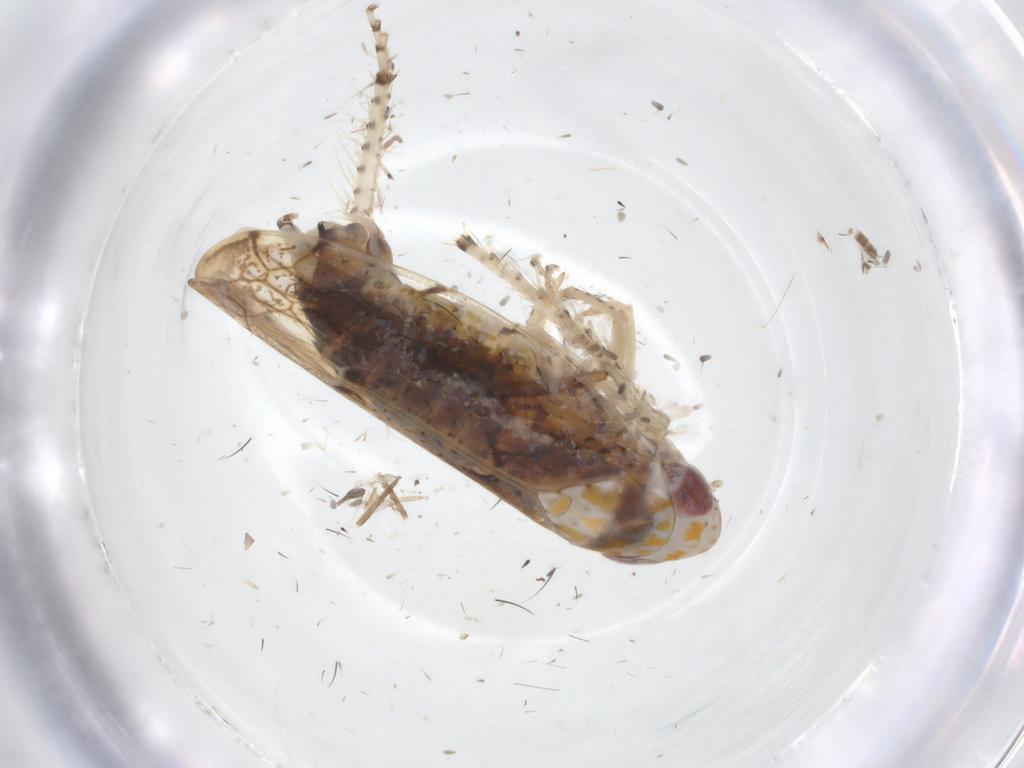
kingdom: Animalia
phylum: Arthropoda
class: Insecta
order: Hemiptera
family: Cicadellidae
